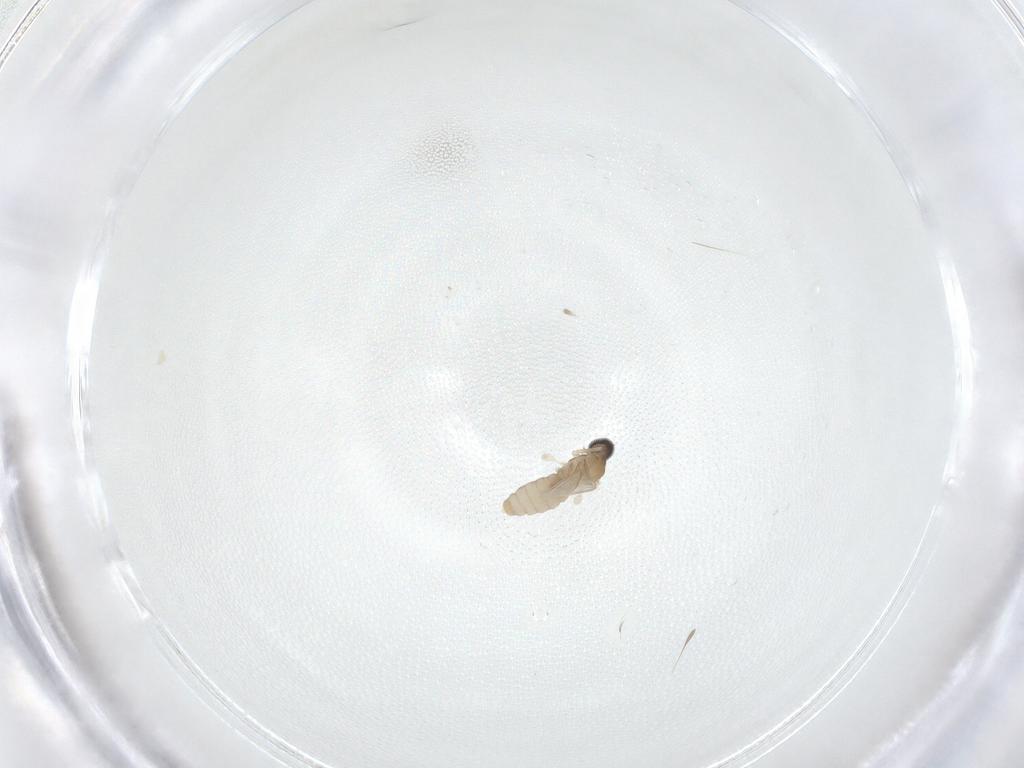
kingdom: Animalia
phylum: Arthropoda
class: Insecta
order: Diptera
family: Cecidomyiidae
